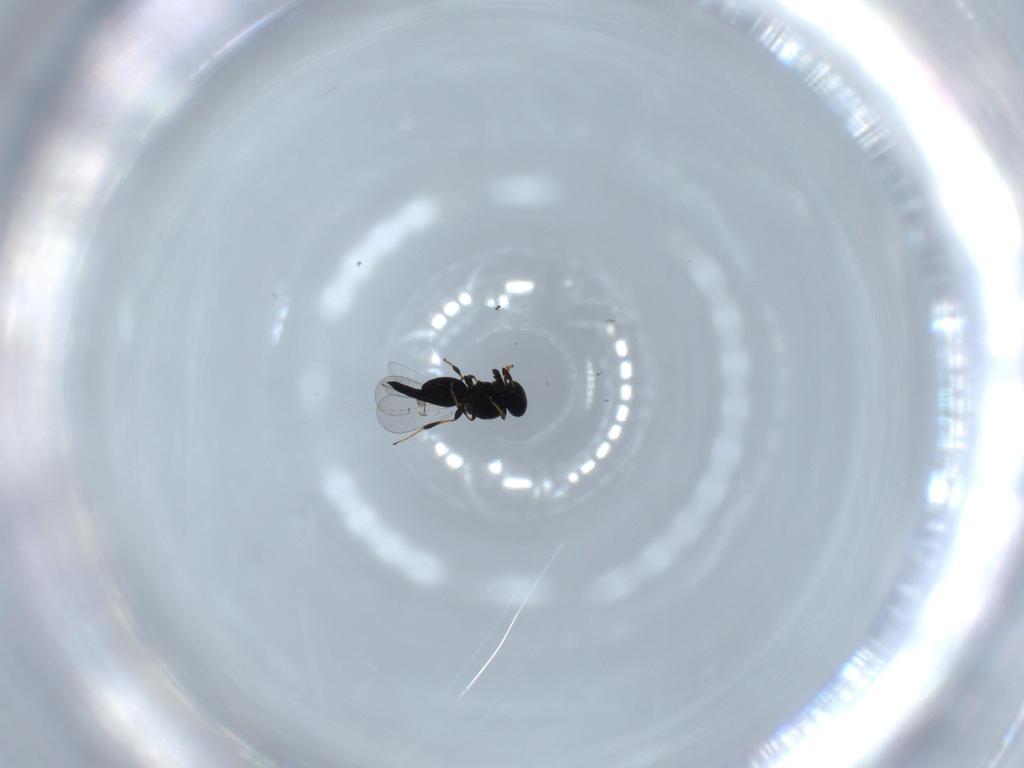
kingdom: Animalia
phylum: Arthropoda
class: Insecta
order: Hymenoptera
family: Platygastridae
